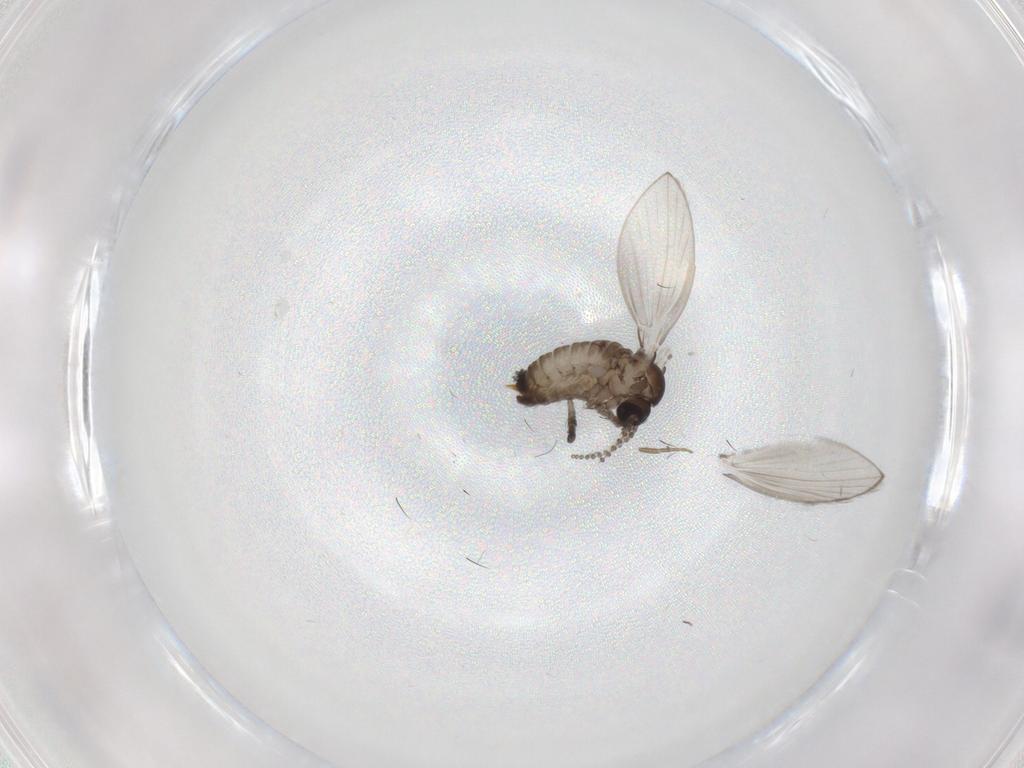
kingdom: Animalia
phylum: Arthropoda
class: Insecta
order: Diptera
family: Psychodidae
